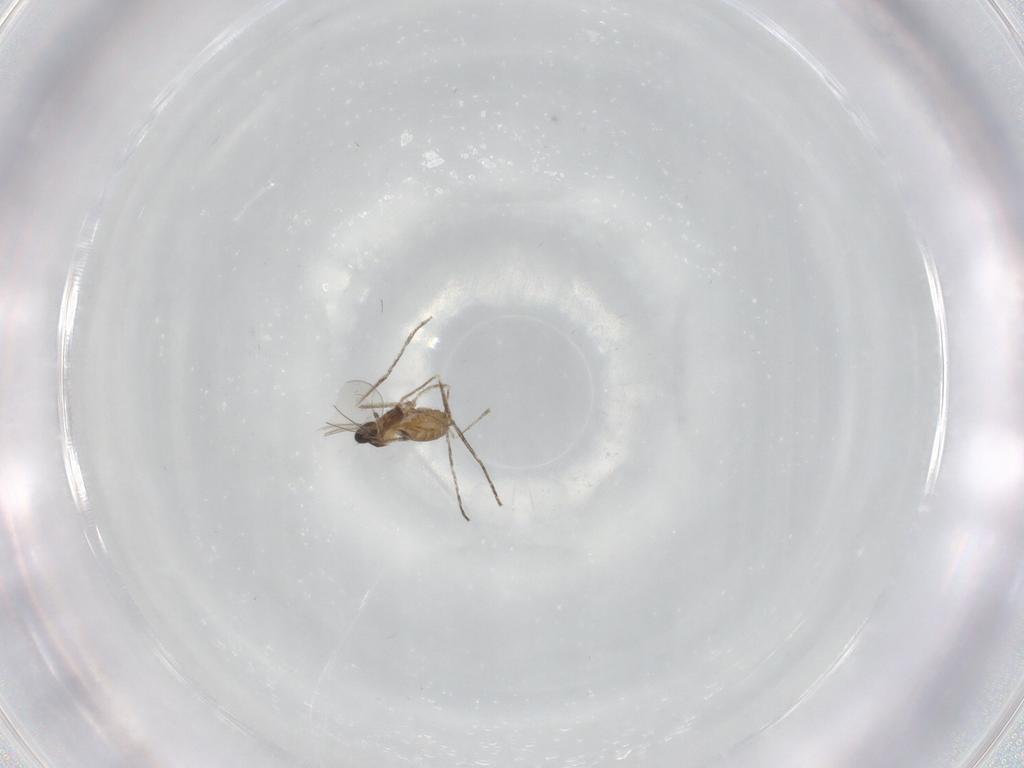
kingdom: Animalia
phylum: Arthropoda
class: Insecta
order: Diptera
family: Cecidomyiidae
